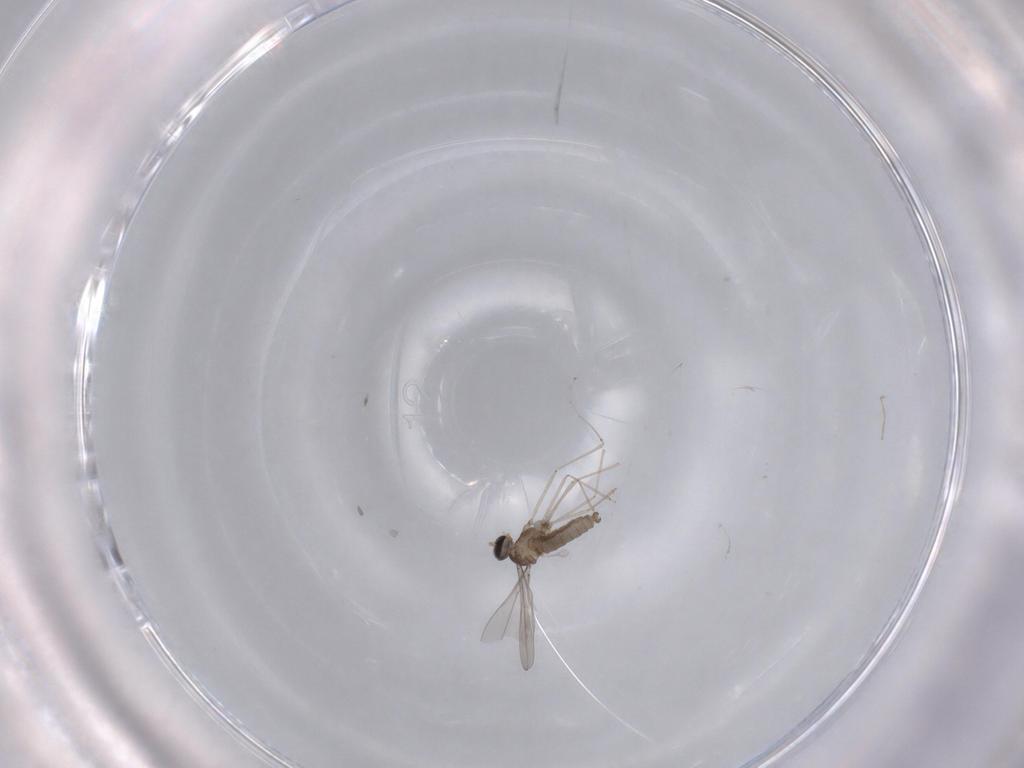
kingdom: Animalia
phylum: Arthropoda
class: Insecta
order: Diptera
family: Cecidomyiidae
